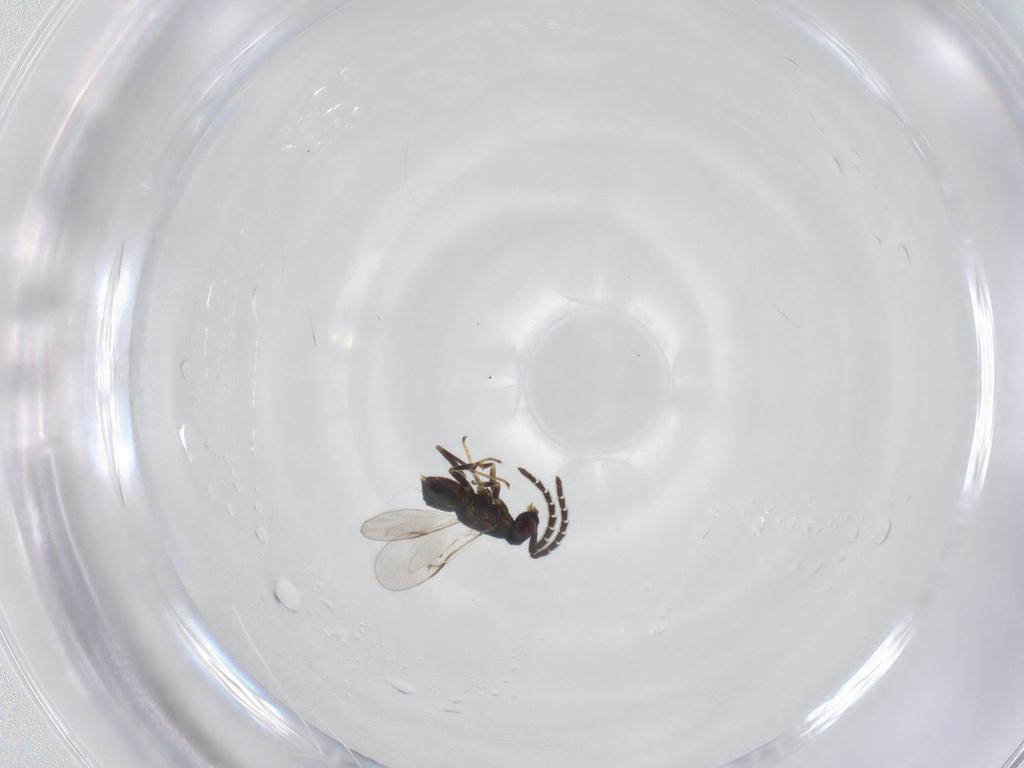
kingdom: Animalia
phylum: Arthropoda
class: Insecta
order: Hymenoptera
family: Encyrtidae
